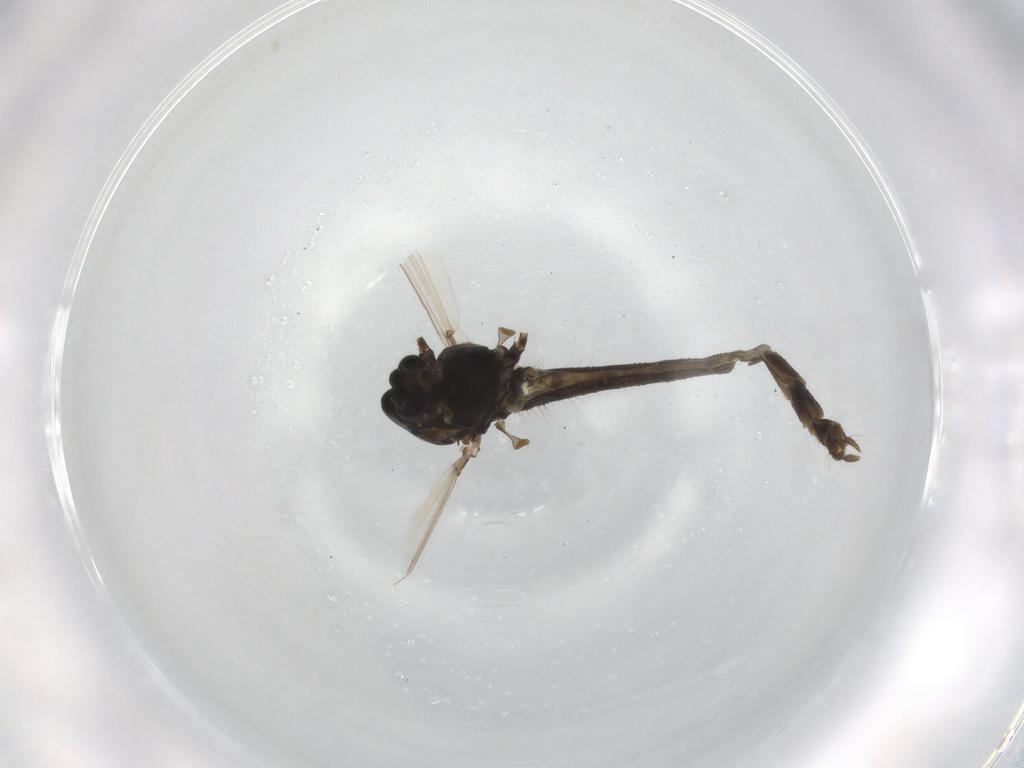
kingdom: Animalia
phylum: Arthropoda
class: Insecta
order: Diptera
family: Chironomidae
